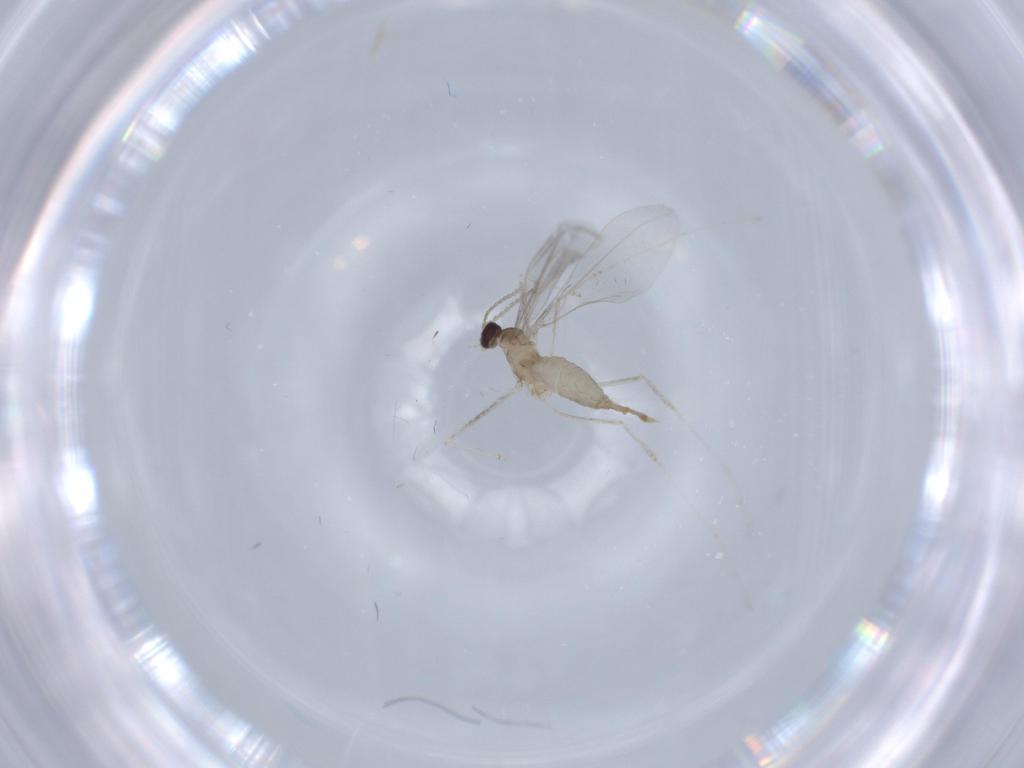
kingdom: Animalia
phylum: Arthropoda
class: Insecta
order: Diptera
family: Cecidomyiidae
